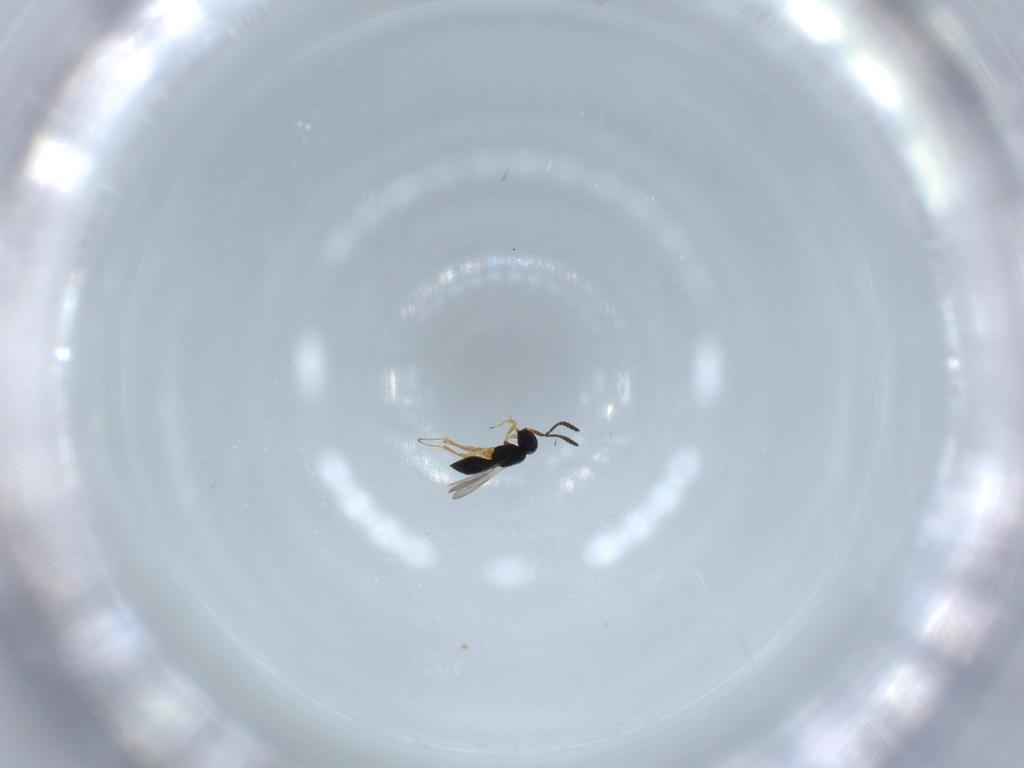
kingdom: Animalia
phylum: Arthropoda
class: Insecta
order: Hymenoptera
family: Scelionidae
